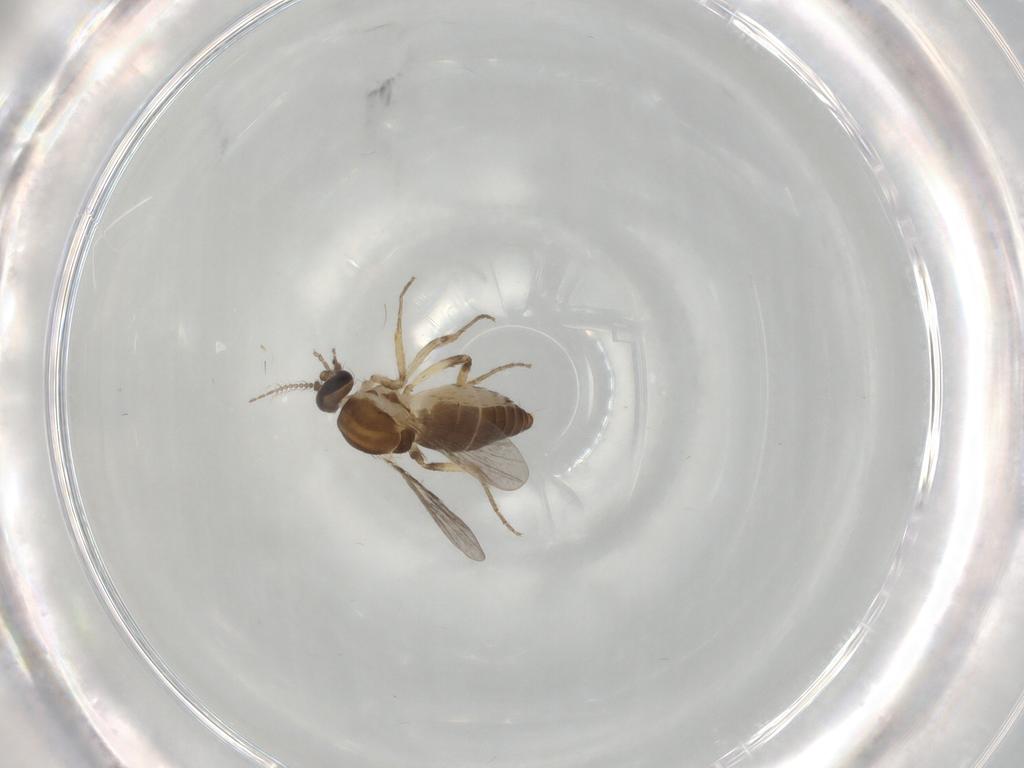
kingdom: Animalia
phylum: Arthropoda
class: Insecta
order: Diptera
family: Ceratopogonidae
